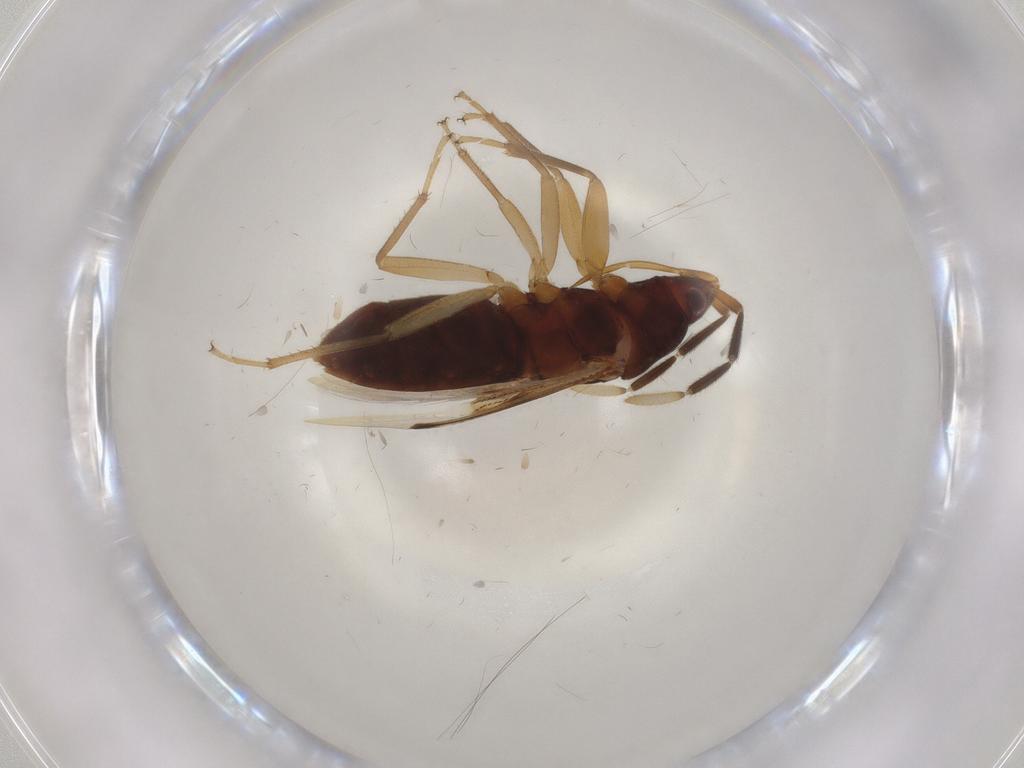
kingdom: Animalia
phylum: Arthropoda
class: Insecta
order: Hemiptera
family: Rhyparochromidae
